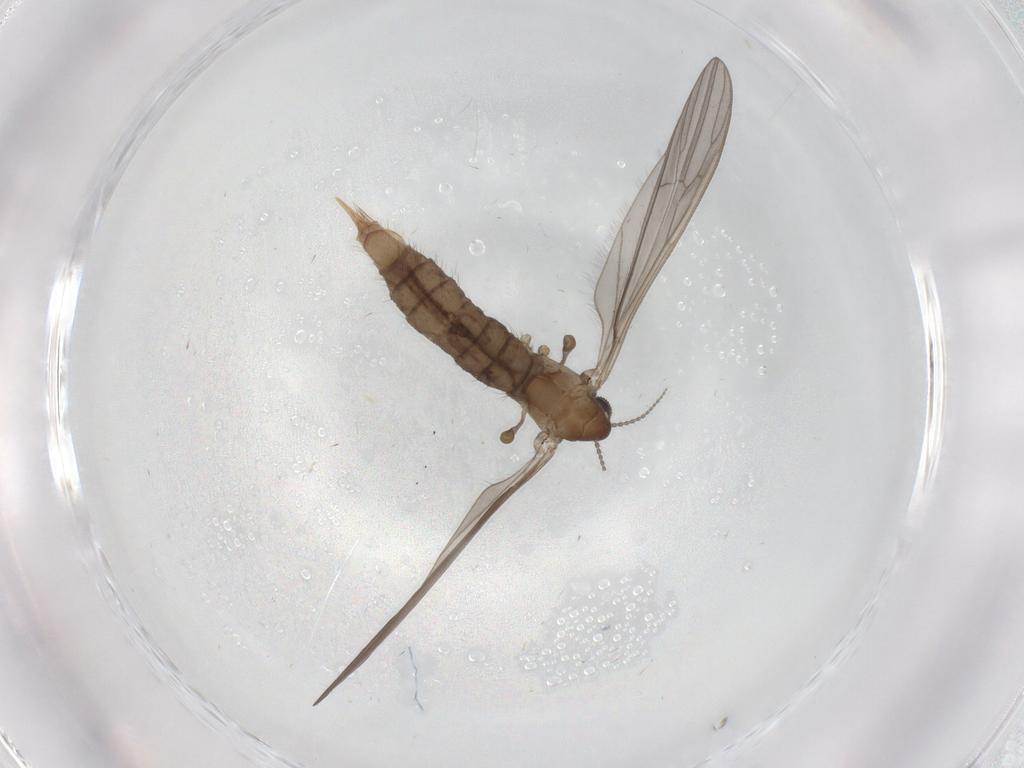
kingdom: Animalia
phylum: Arthropoda
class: Insecta
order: Diptera
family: Limoniidae
